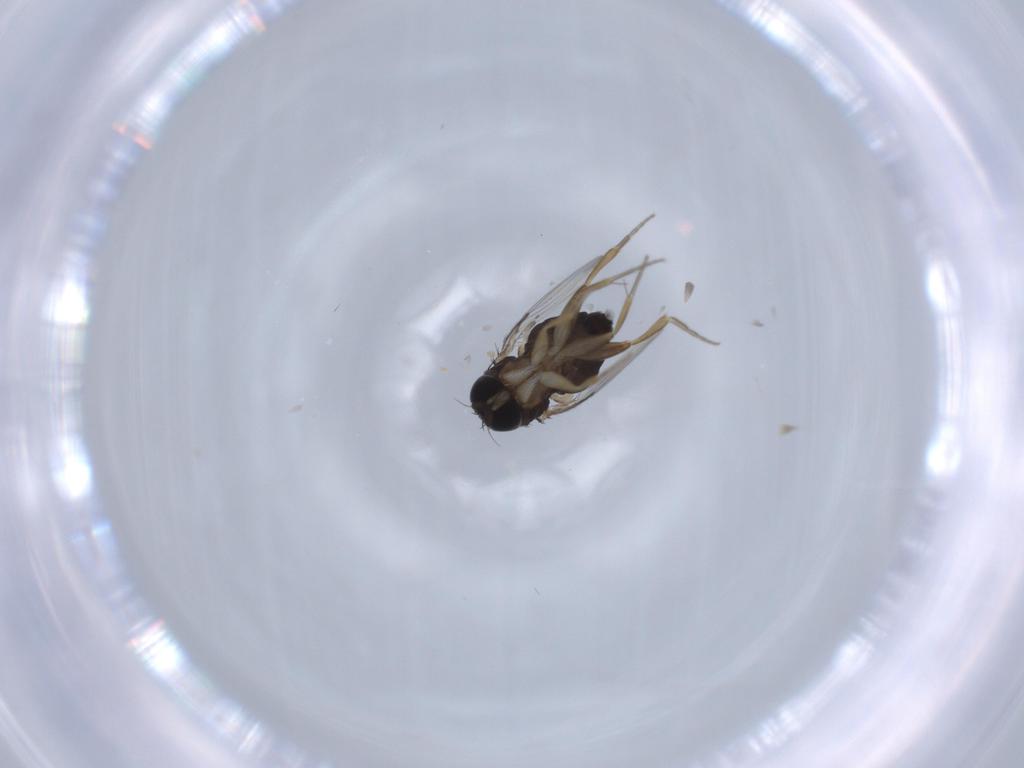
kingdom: Animalia
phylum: Arthropoda
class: Insecta
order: Diptera
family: Phoridae
